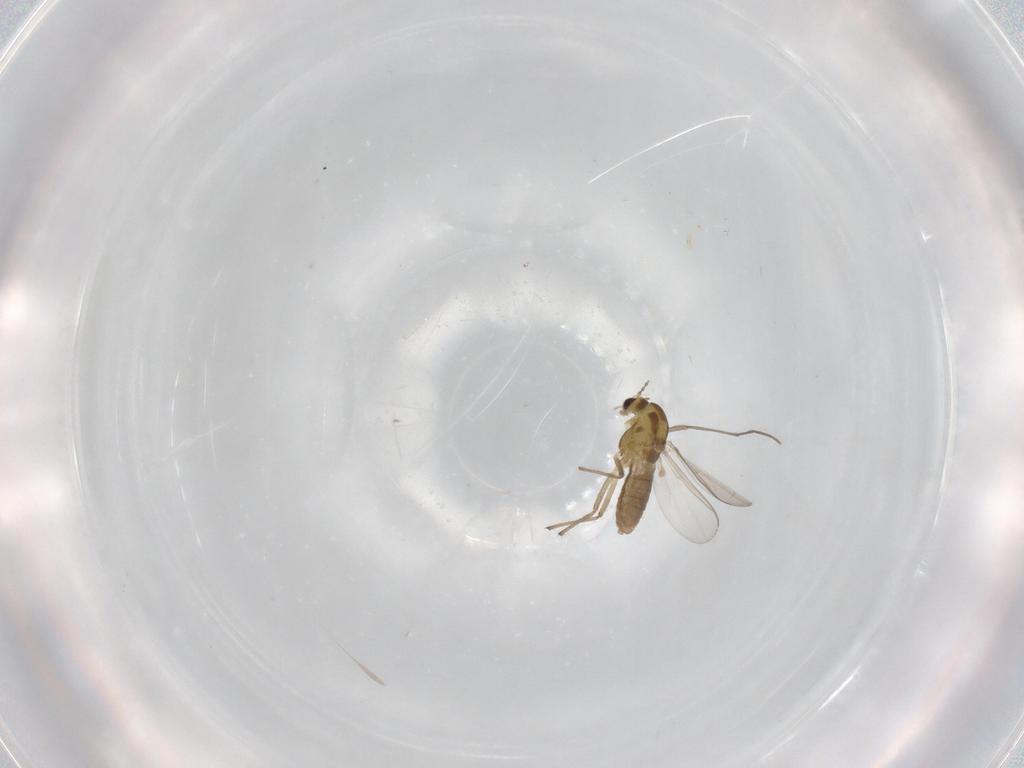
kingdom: Animalia
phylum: Arthropoda
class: Insecta
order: Diptera
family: Chironomidae
